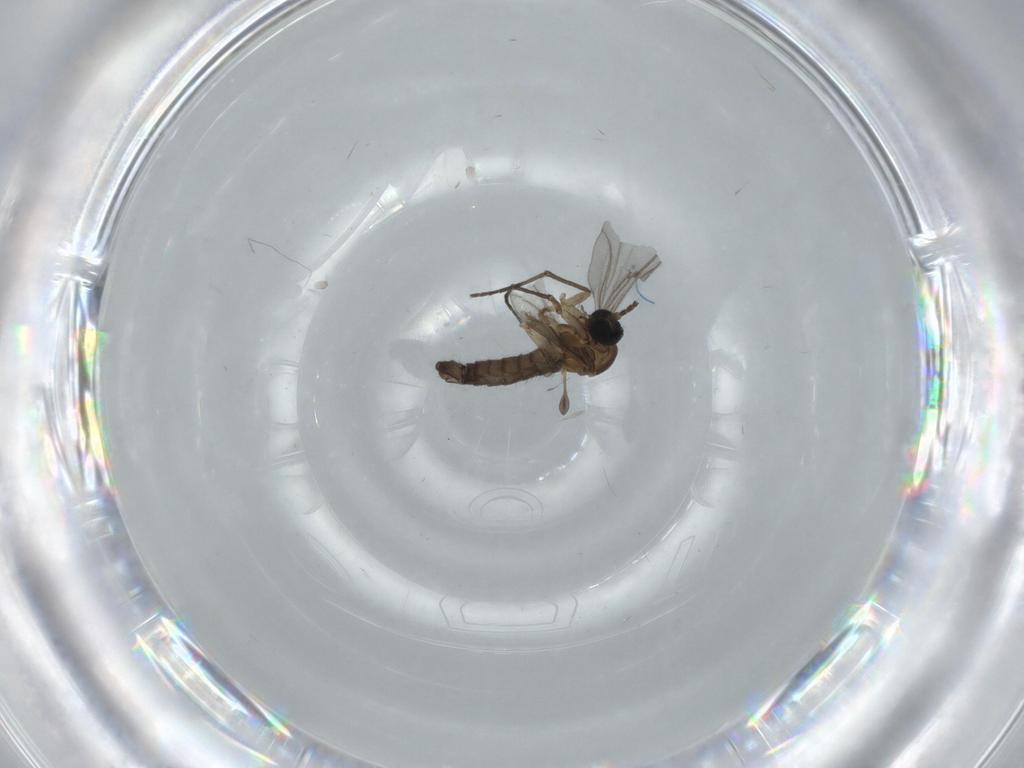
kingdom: Animalia
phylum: Arthropoda
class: Insecta
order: Diptera
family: Sciaridae
